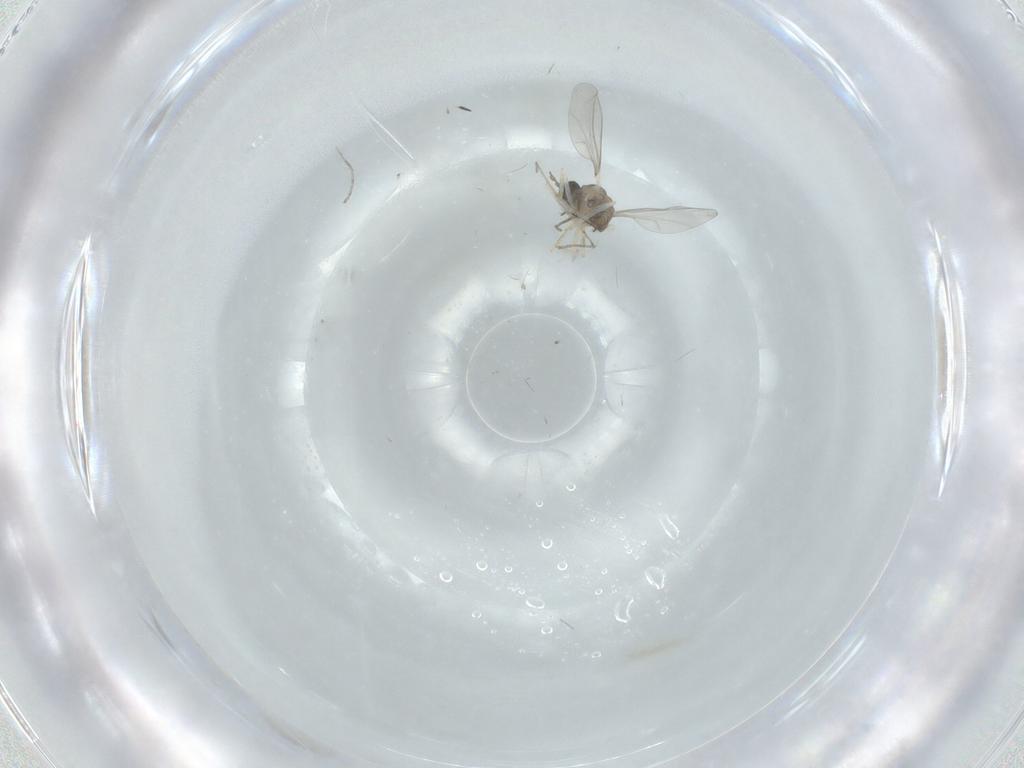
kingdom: Animalia
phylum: Arthropoda
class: Insecta
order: Diptera
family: Cecidomyiidae
